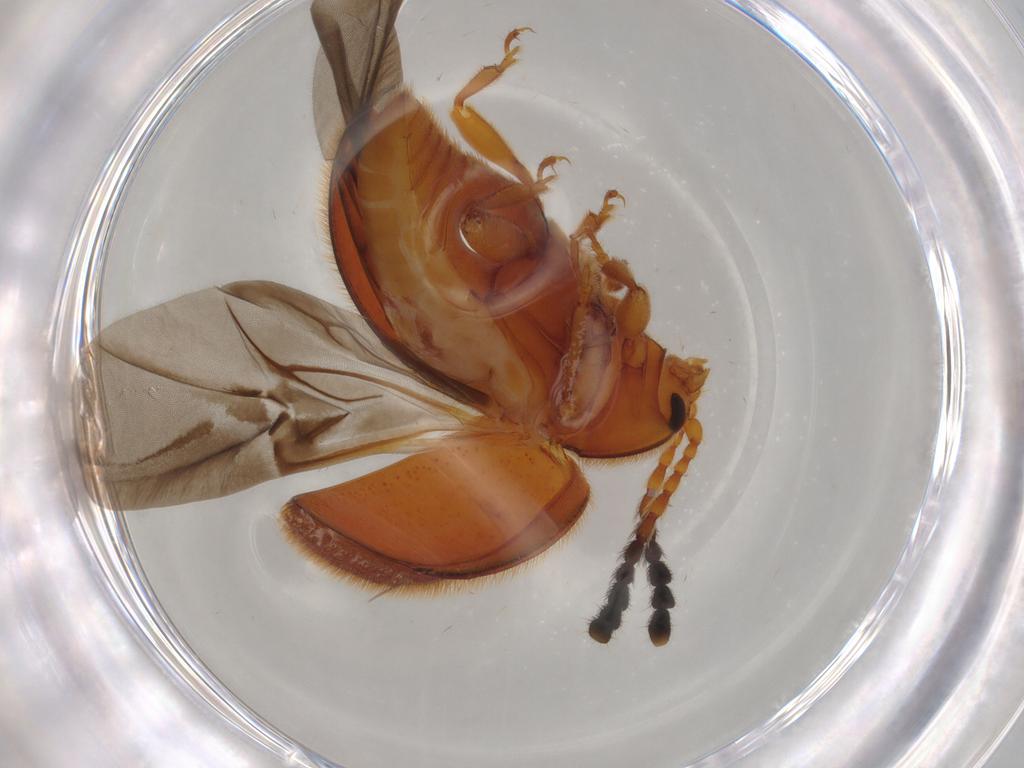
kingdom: Animalia
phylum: Arthropoda
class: Insecta
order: Coleoptera
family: Endomychidae
